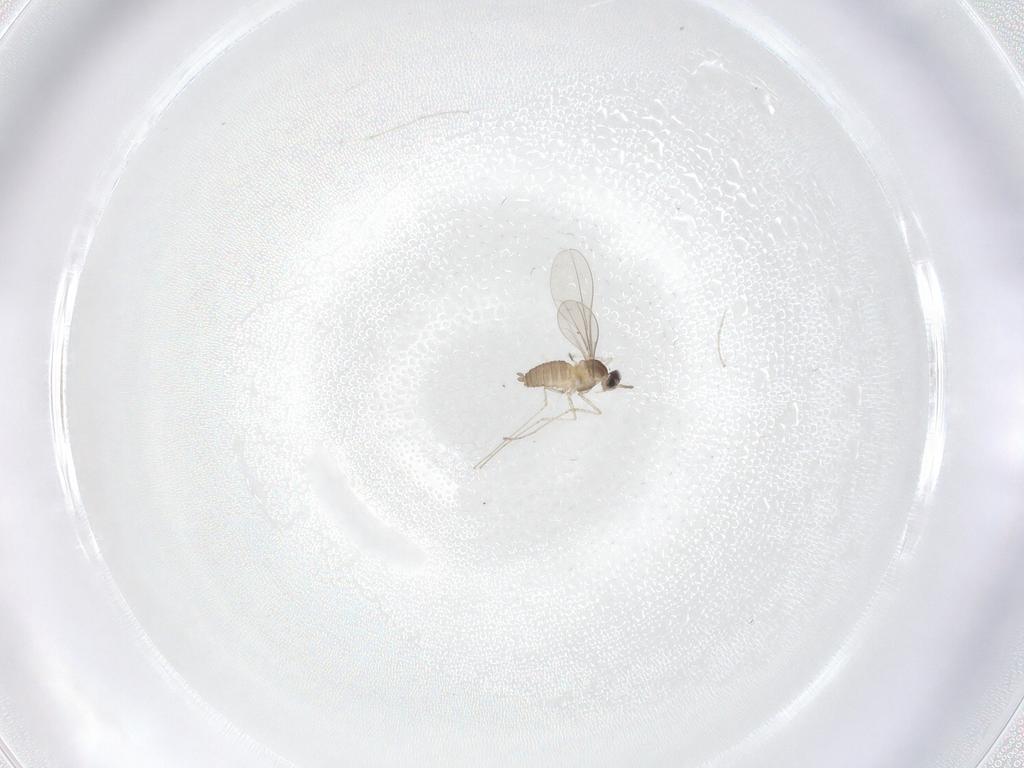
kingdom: Animalia
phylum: Arthropoda
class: Insecta
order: Diptera
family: Cecidomyiidae
